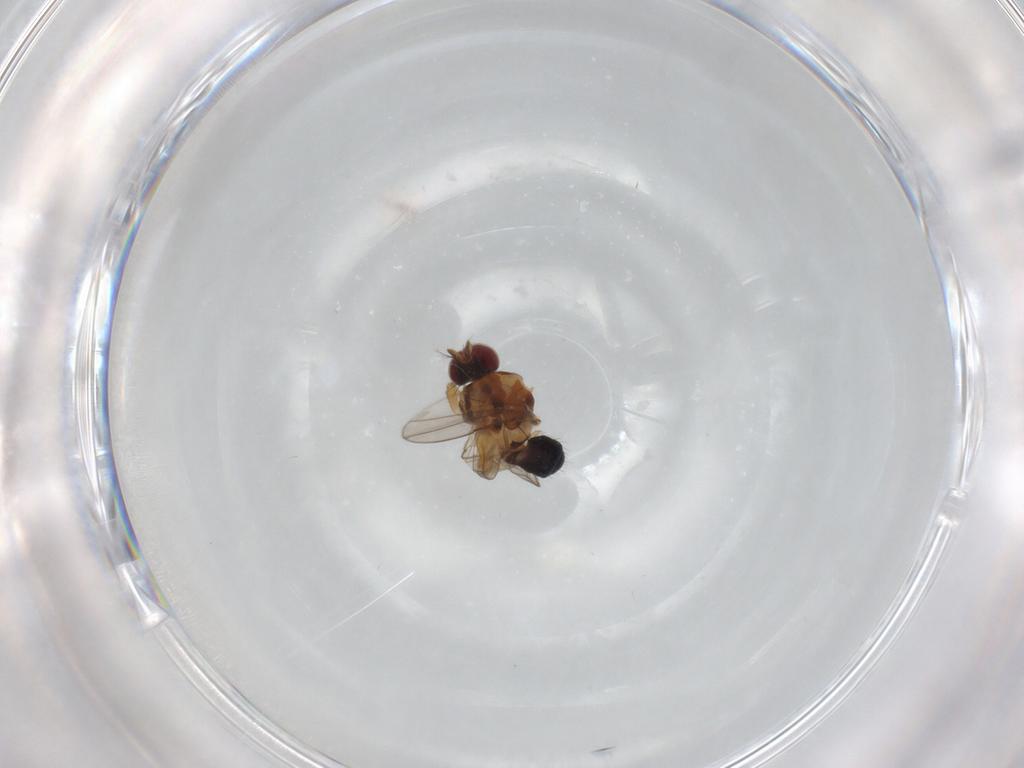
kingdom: Animalia
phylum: Arthropoda
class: Insecta
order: Diptera
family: Ephydridae
